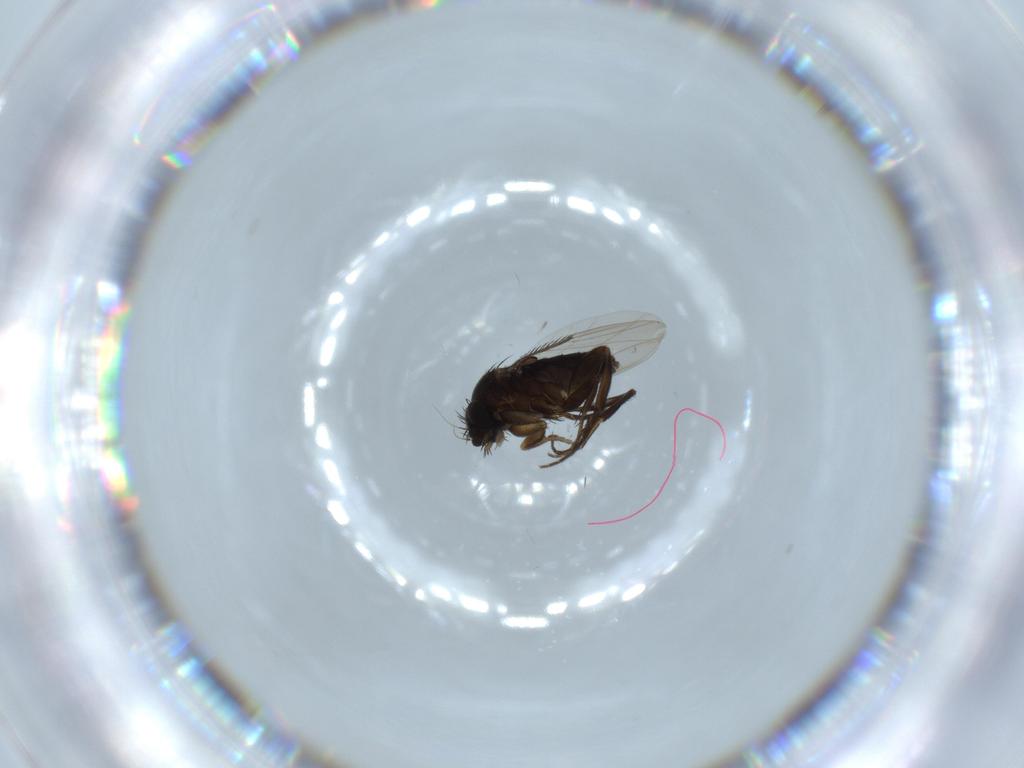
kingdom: Animalia
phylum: Arthropoda
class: Insecta
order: Diptera
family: Phoridae
